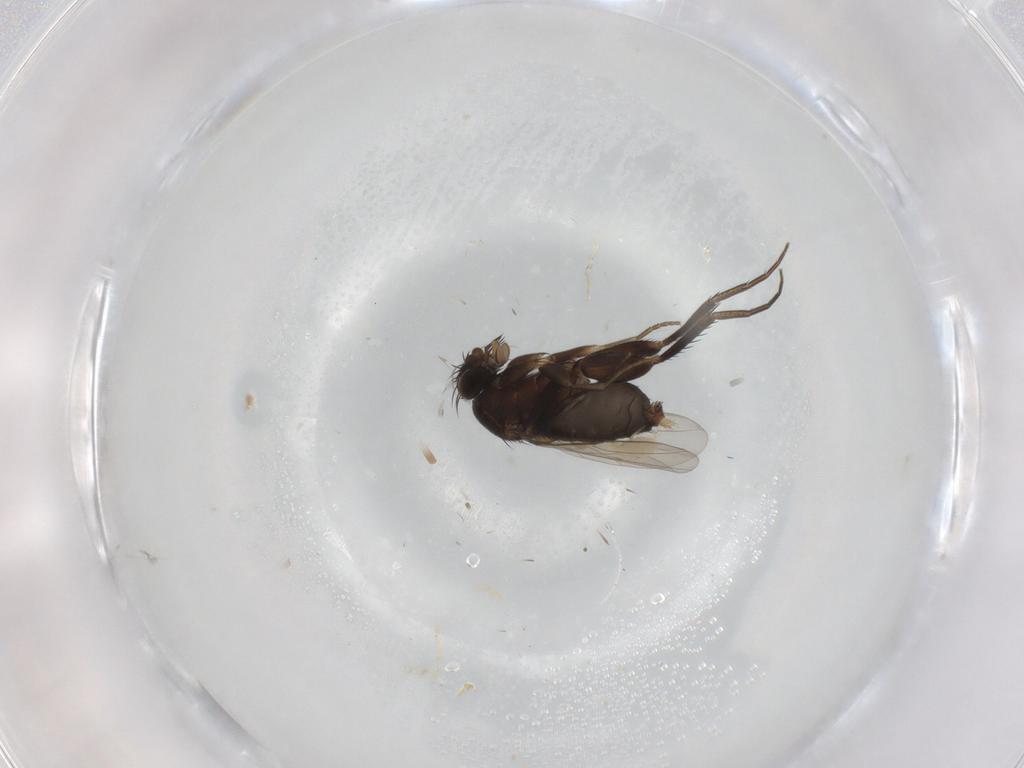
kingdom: Animalia
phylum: Arthropoda
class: Insecta
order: Diptera
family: Phoridae
